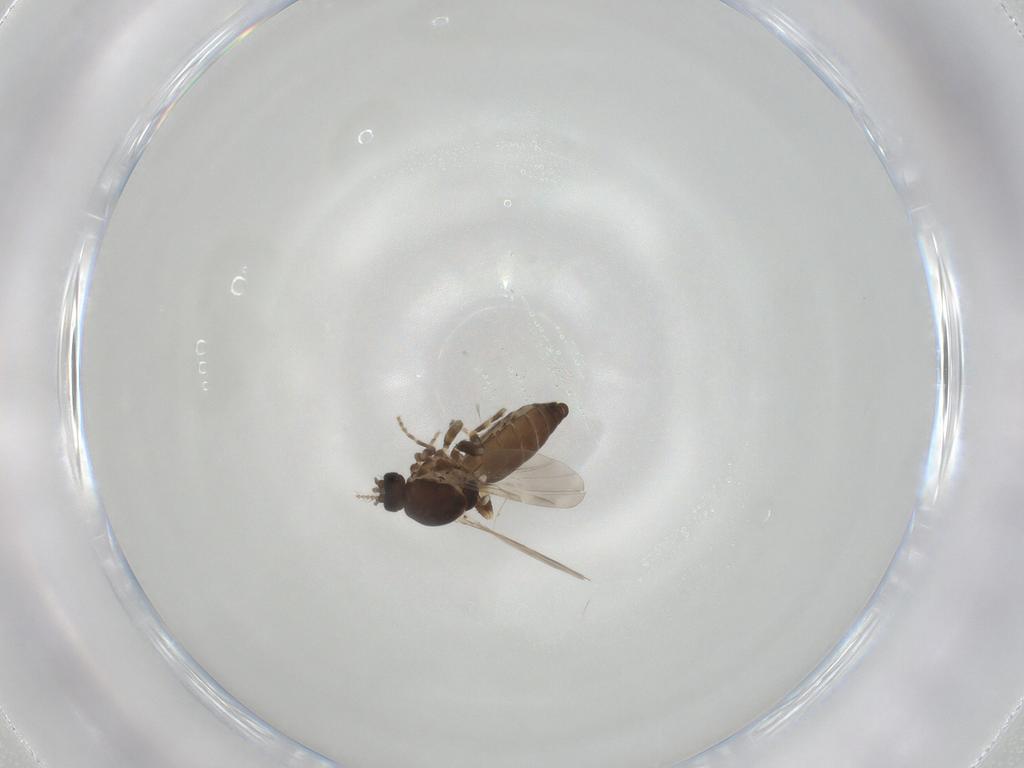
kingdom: Animalia
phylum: Arthropoda
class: Insecta
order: Diptera
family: Ceratopogonidae
